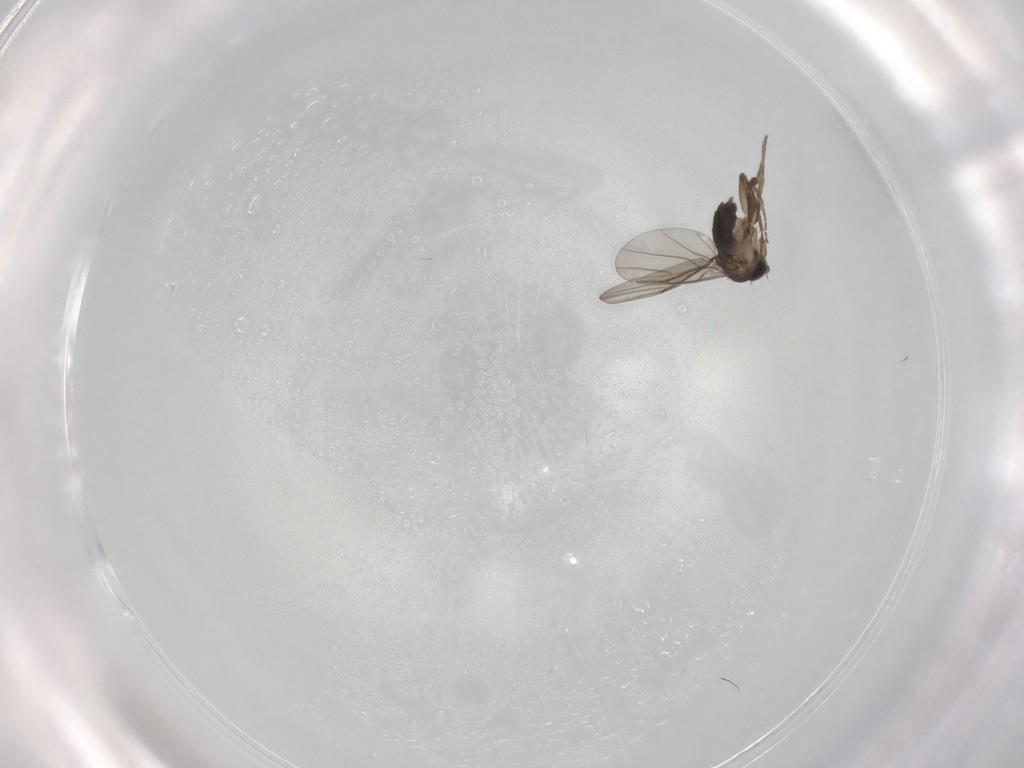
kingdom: Animalia
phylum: Arthropoda
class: Insecta
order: Diptera
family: Phoridae
